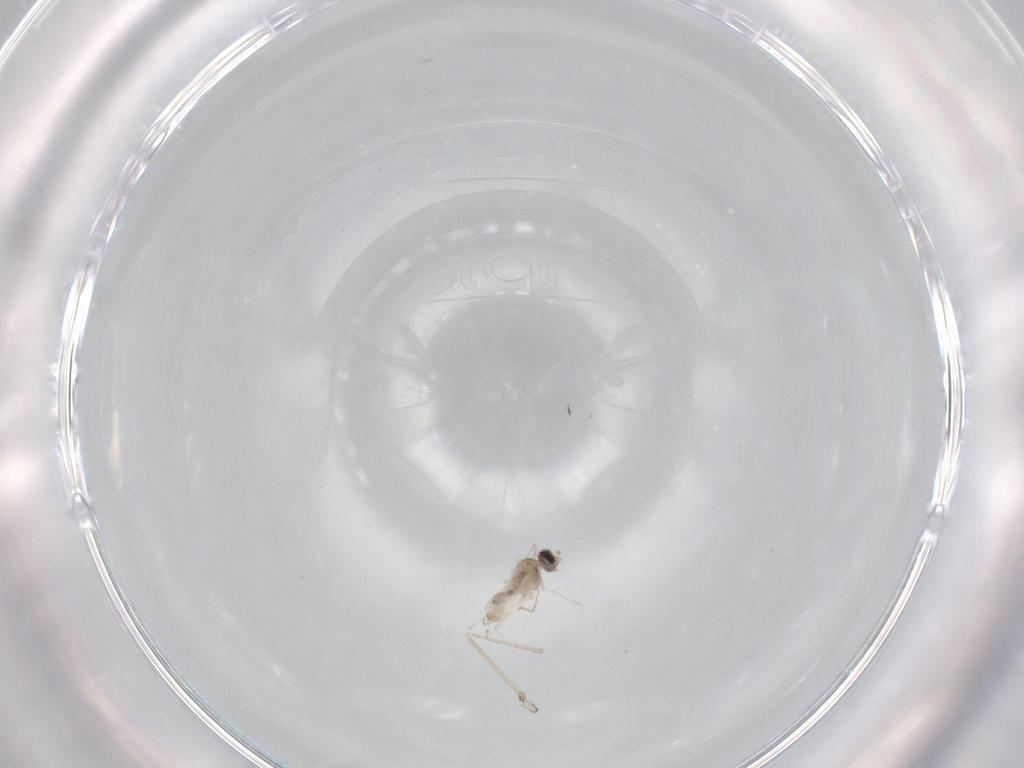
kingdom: Animalia
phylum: Arthropoda
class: Insecta
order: Diptera
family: Cecidomyiidae
